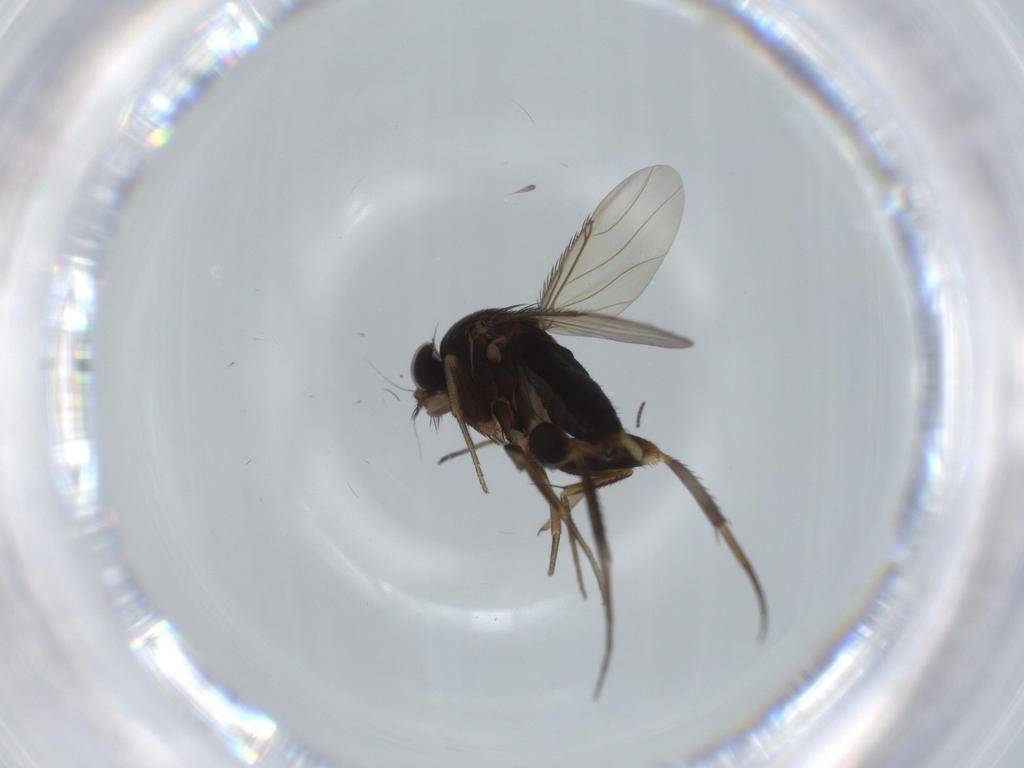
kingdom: Animalia
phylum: Arthropoda
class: Insecta
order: Diptera
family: Phoridae
